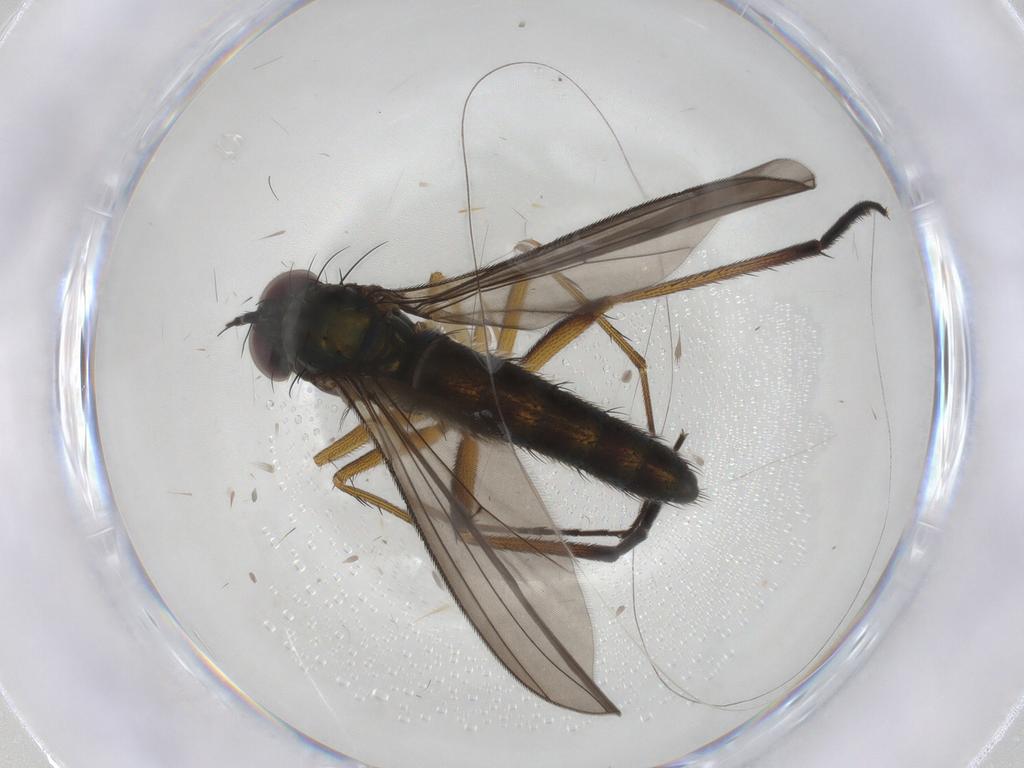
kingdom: Animalia
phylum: Arthropoda
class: Insecta
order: Diptera
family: Dolichopodidae
